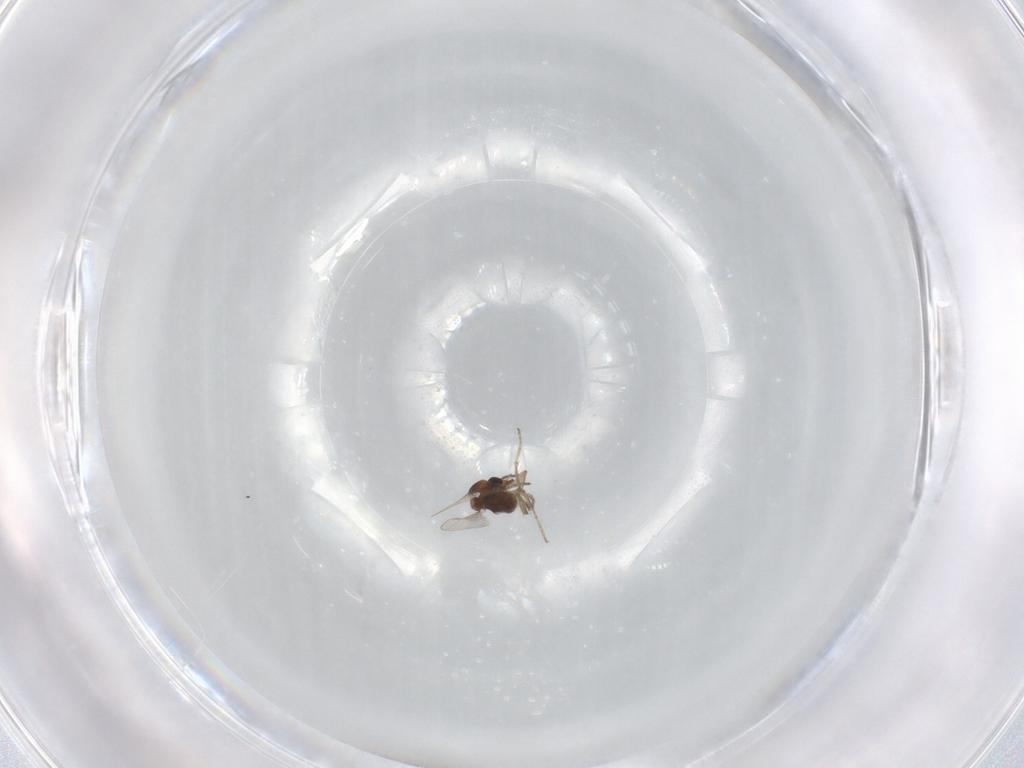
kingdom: Animalia
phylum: Arthropoda
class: Insecta
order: Diptera
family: Ceratopogonidae
